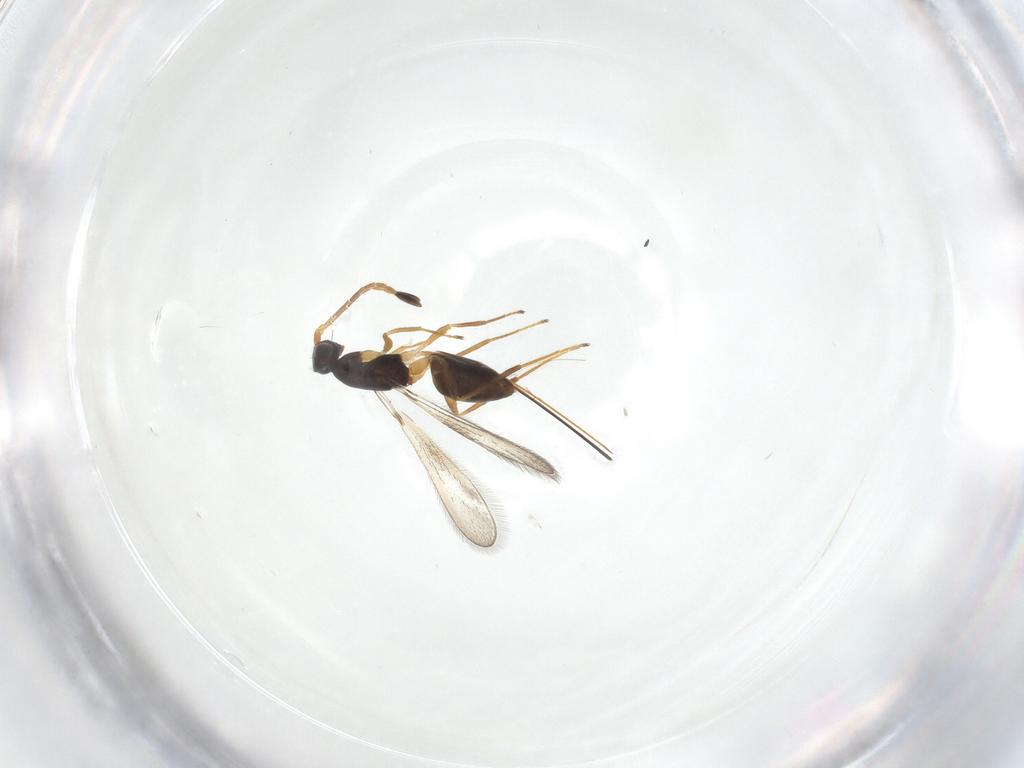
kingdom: Animalia
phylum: Arthropoda
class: Insecta
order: Hymenoptera
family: Mymaridae
